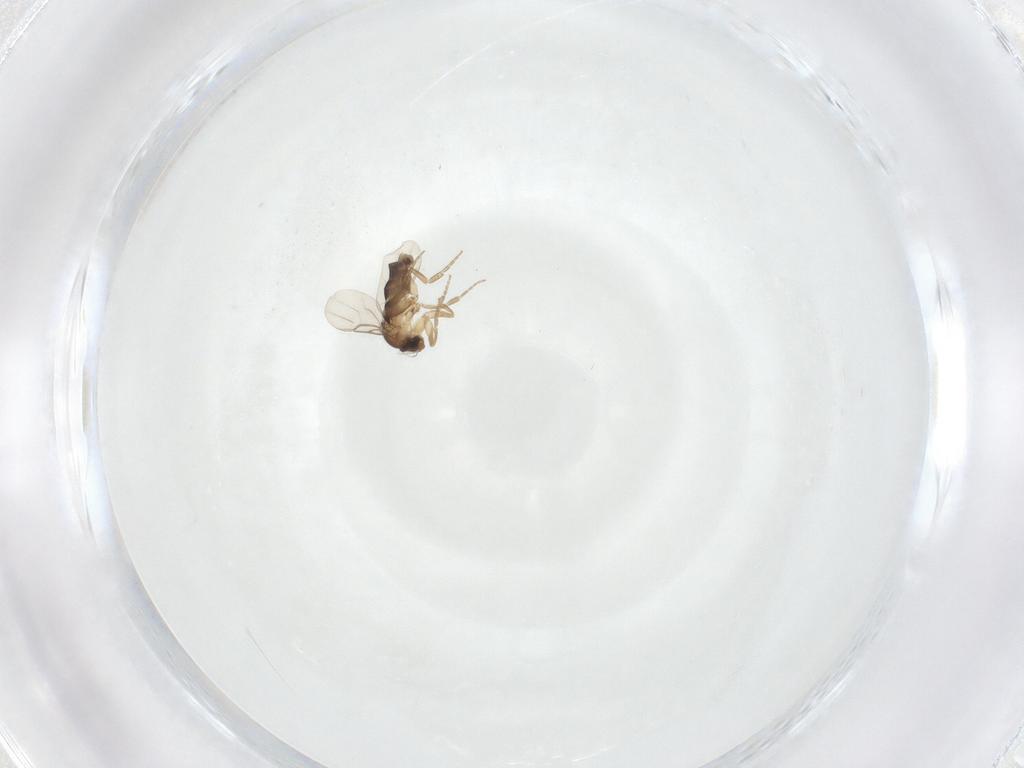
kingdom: Animalia
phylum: Arthropoda
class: Insecta
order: Diptera
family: Phoridae
